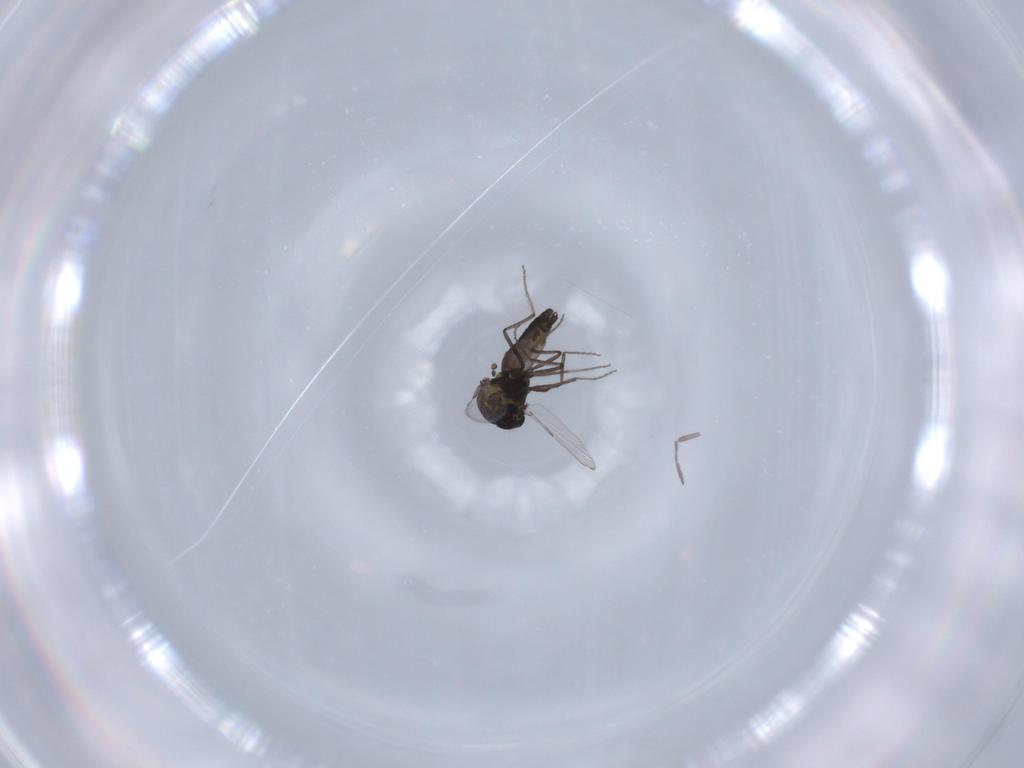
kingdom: Animalia
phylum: Arthropoda
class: Insecta
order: Diptera
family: Ceratopogonidae
